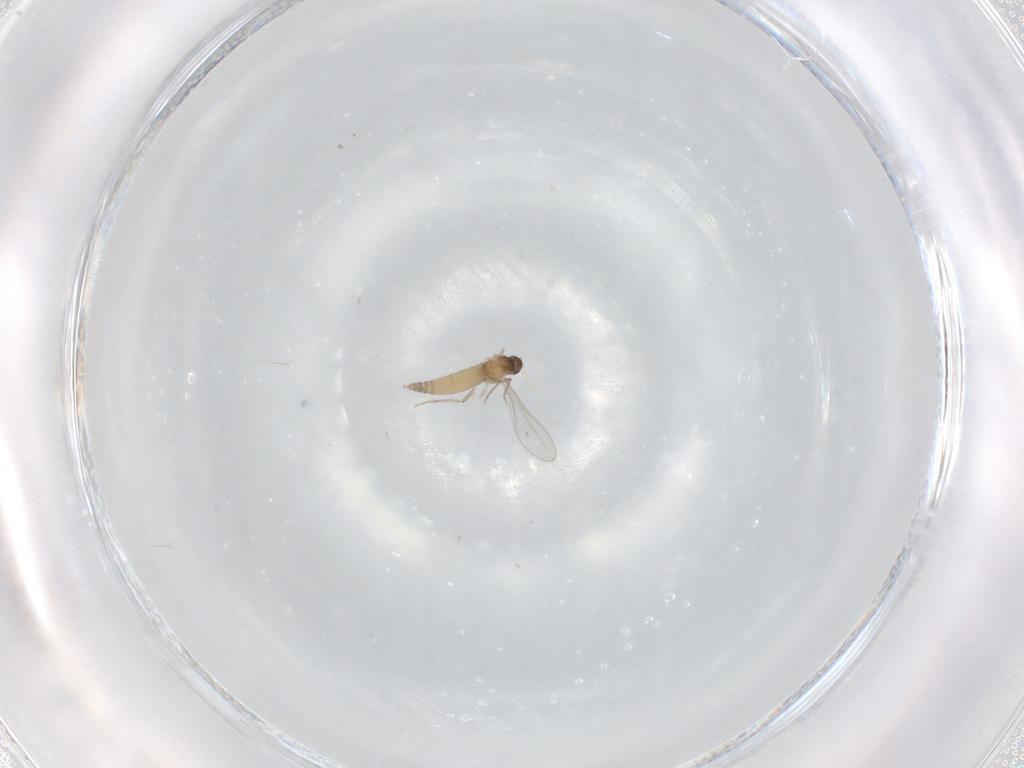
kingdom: Animalia
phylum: Arthropoda
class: Insecta
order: Diptera
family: Cecidomyiidae
